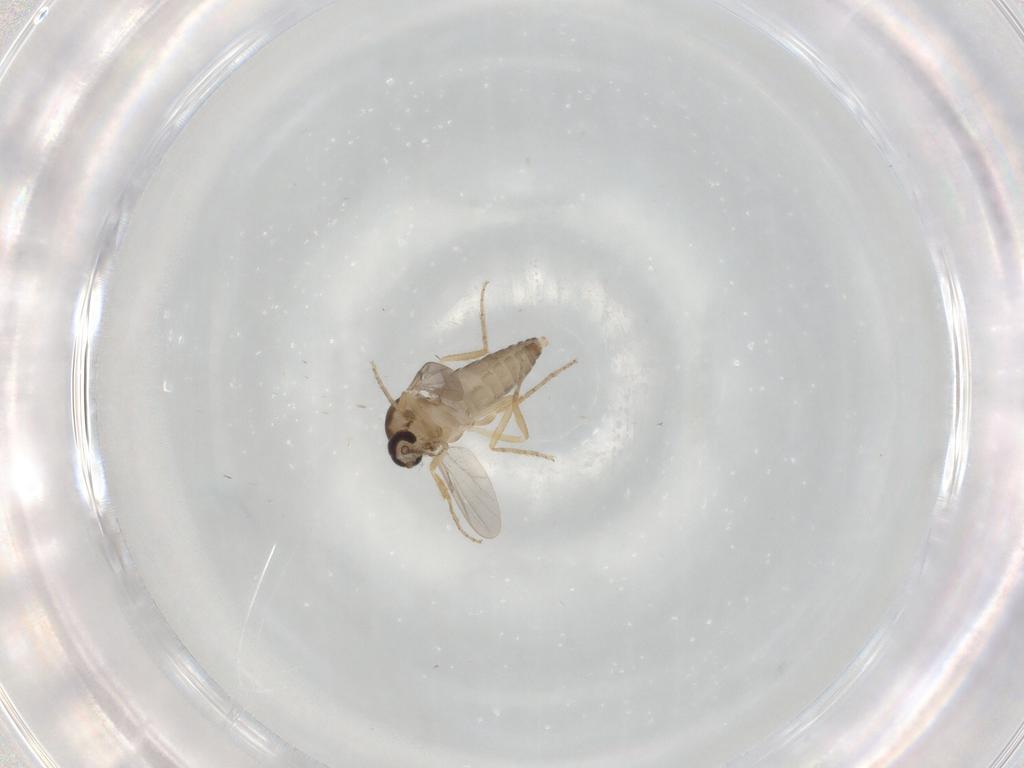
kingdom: Animalia
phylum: Arthropoda
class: Insecta
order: Diptera
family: Ceratopogonidae
